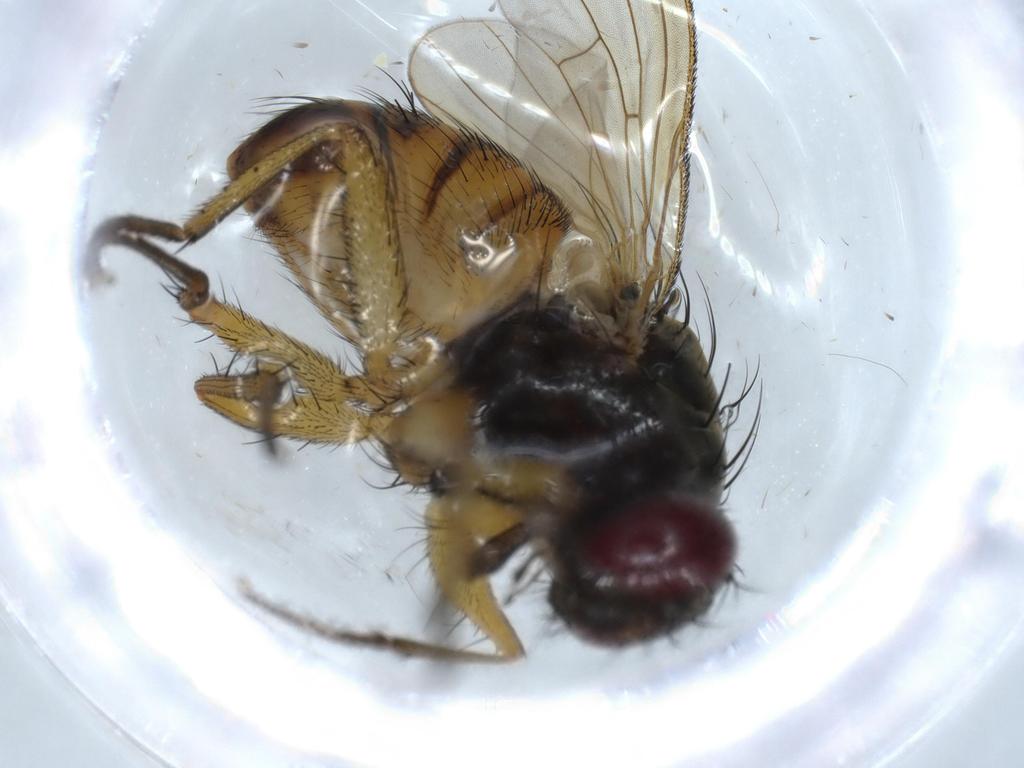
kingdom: Animalia
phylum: Arthropoda
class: Insecta
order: Diptera
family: Muscidae
